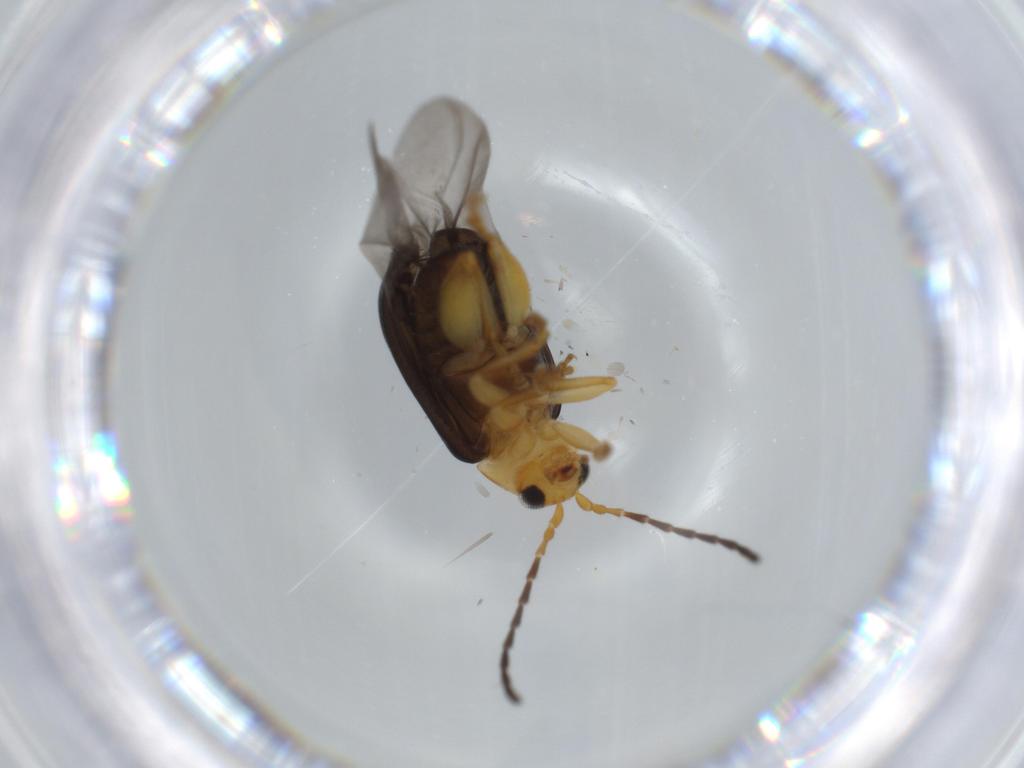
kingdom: Animalia
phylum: Arthropoda
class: Insecta
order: Coleoptera
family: Chrysomelidae
